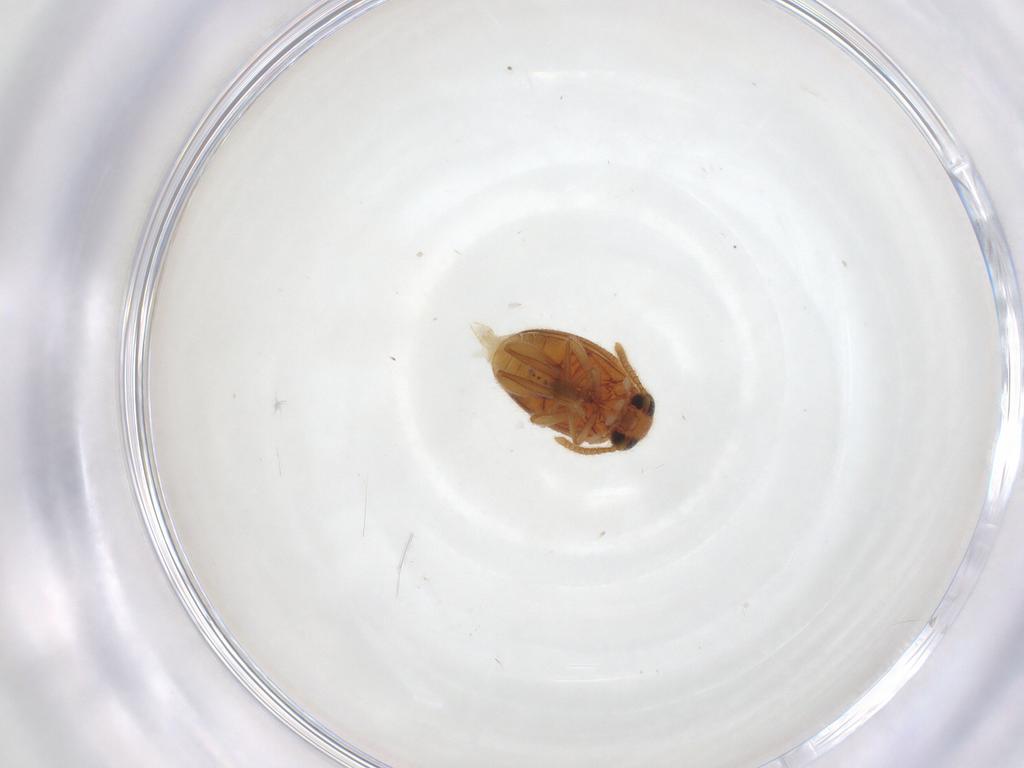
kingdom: Animalia
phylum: Arthropoda
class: Insecta
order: Coleoptera
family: Aderidae
